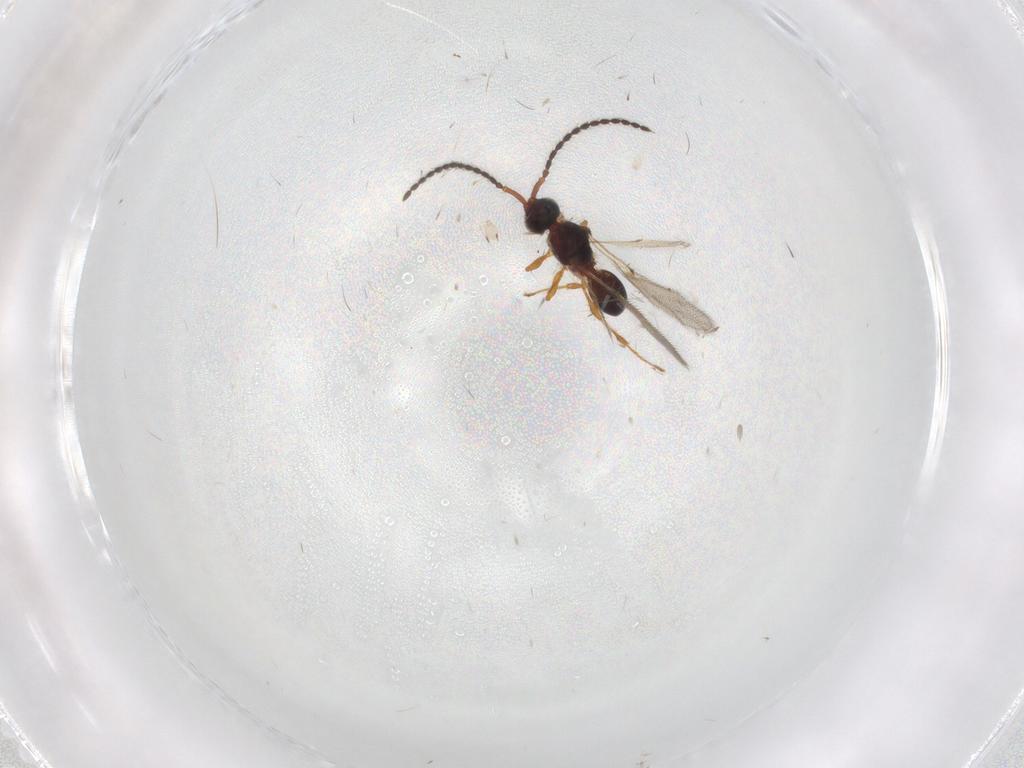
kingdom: Animalia
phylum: Arthropoda
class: Insecta
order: Hymenoptera
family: Diapriidae
